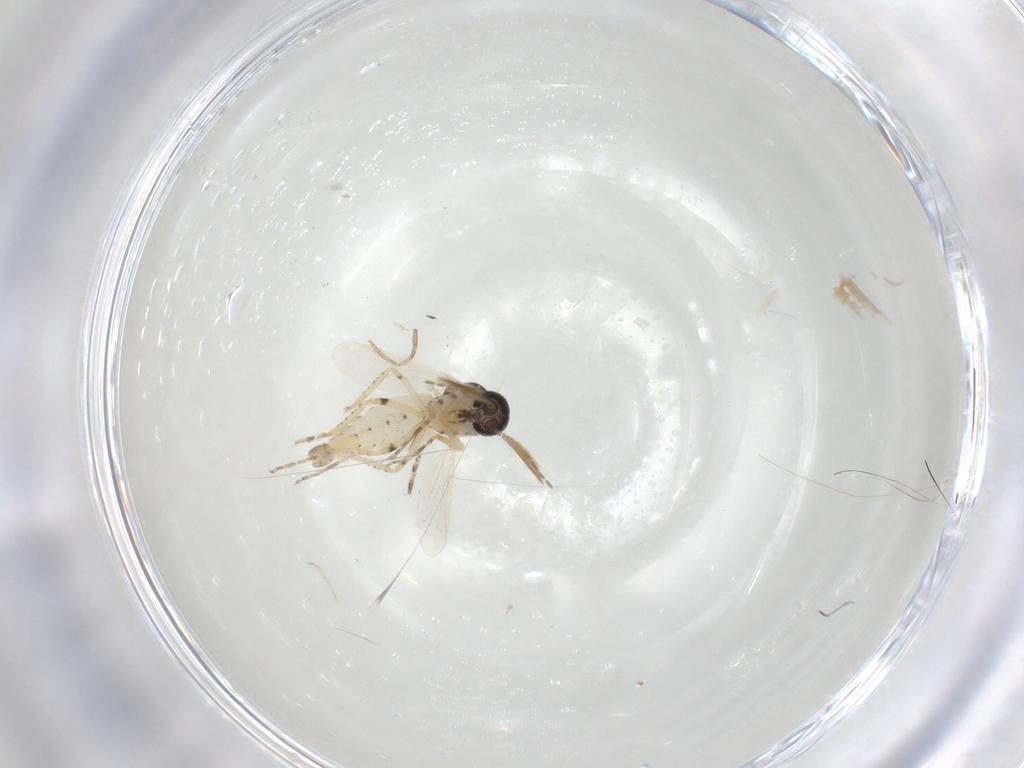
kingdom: Animalia
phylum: Arthropoda
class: Insecta
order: Diptera
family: Ceratopogonidae
